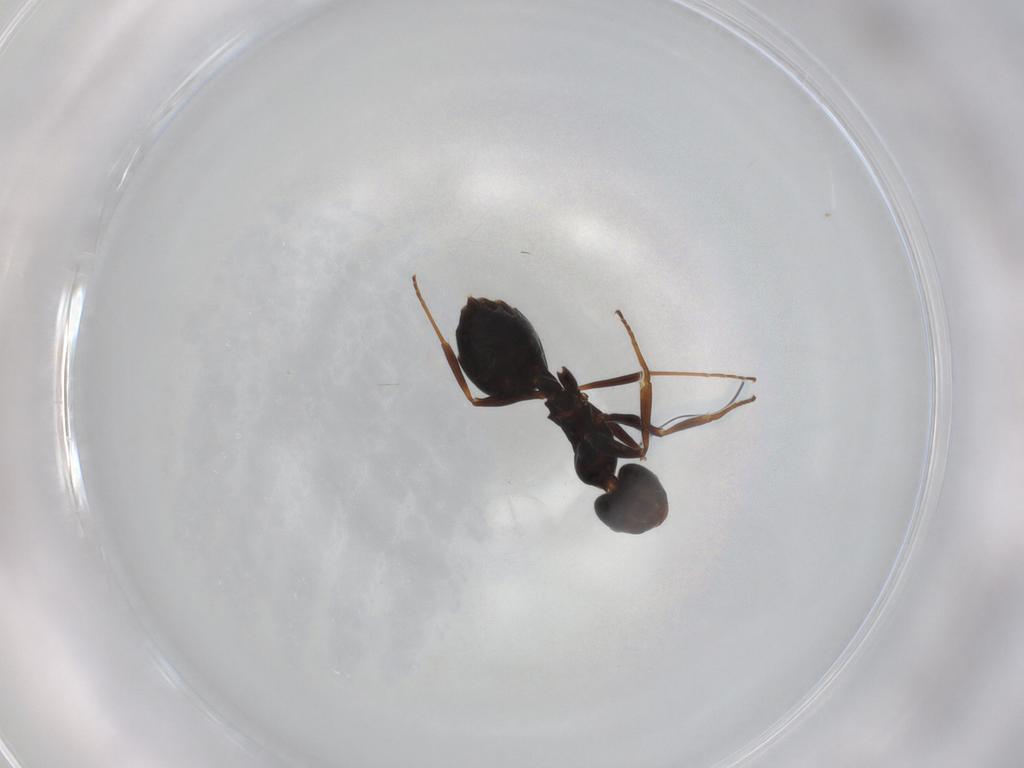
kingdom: Animalia
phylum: Arthropoda
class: Insecta
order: Hymenoptera
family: Formicidae
